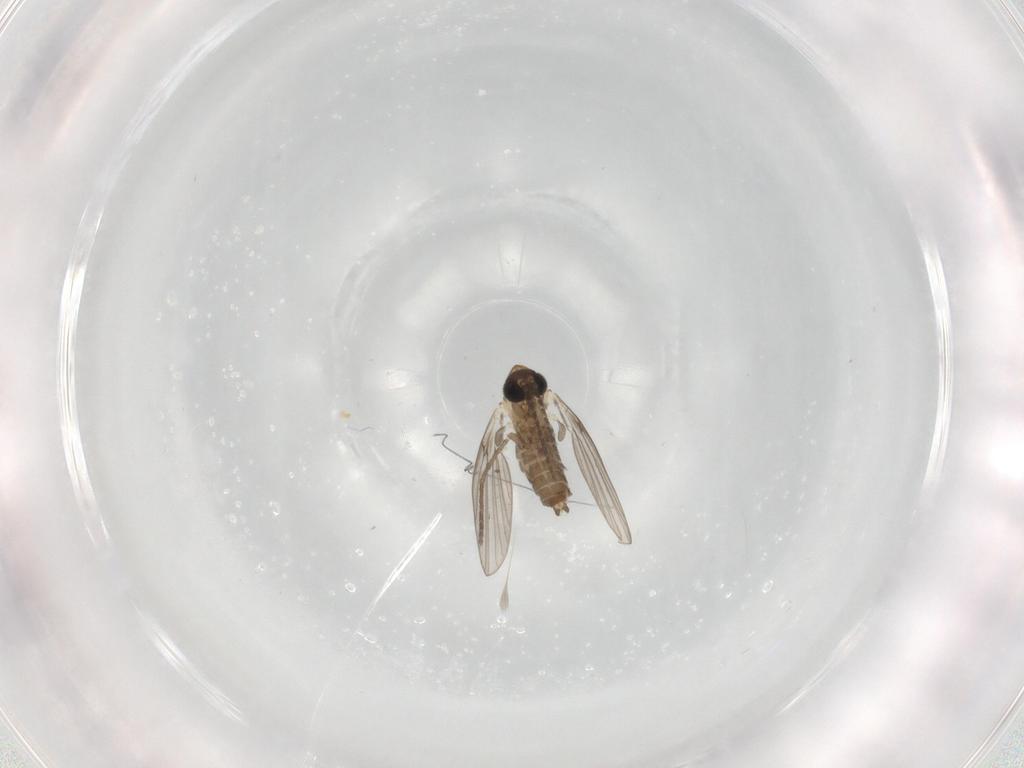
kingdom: Animalia
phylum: Arthropoda
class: Insecta
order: Diptera
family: Psychodidae
